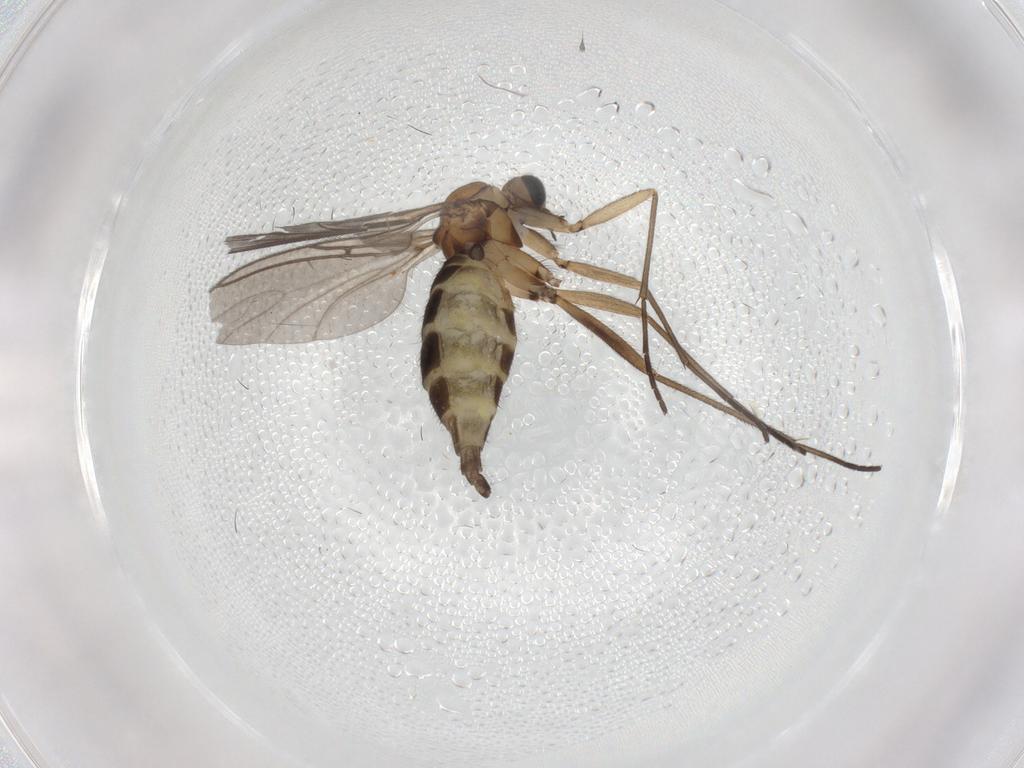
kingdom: Animalia
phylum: Arthropoda
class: Insecta
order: Diptera
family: Sciaridae
